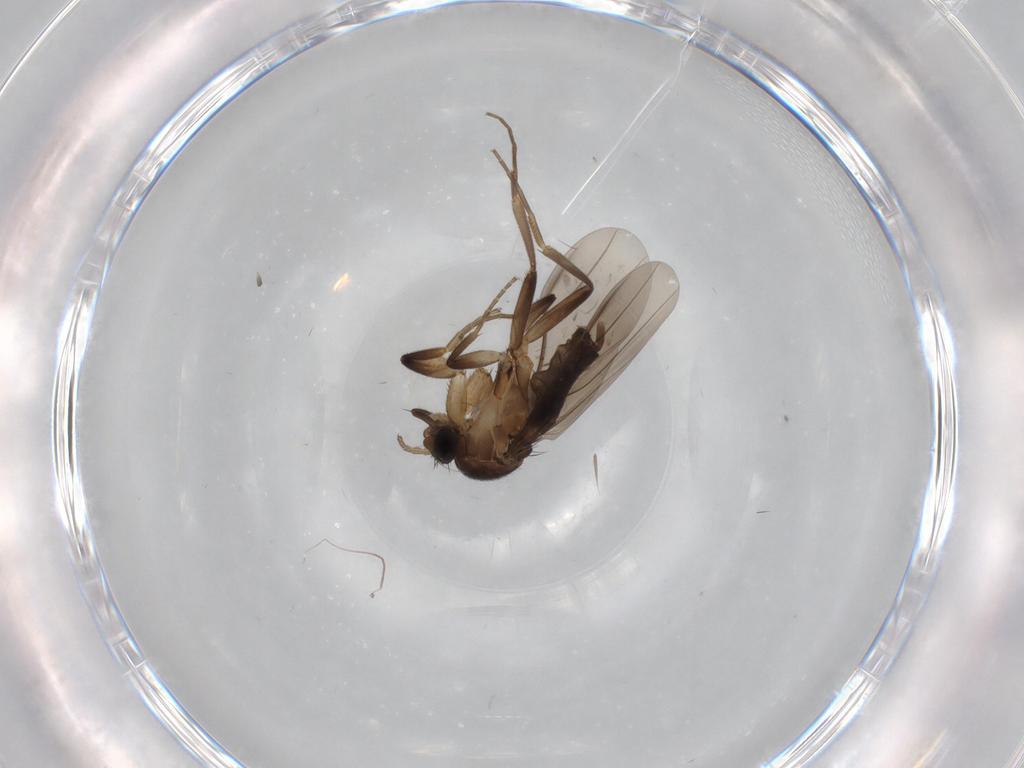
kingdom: Animalia
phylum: Arthropoda
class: Insecta
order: Diptera
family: Phoridae
